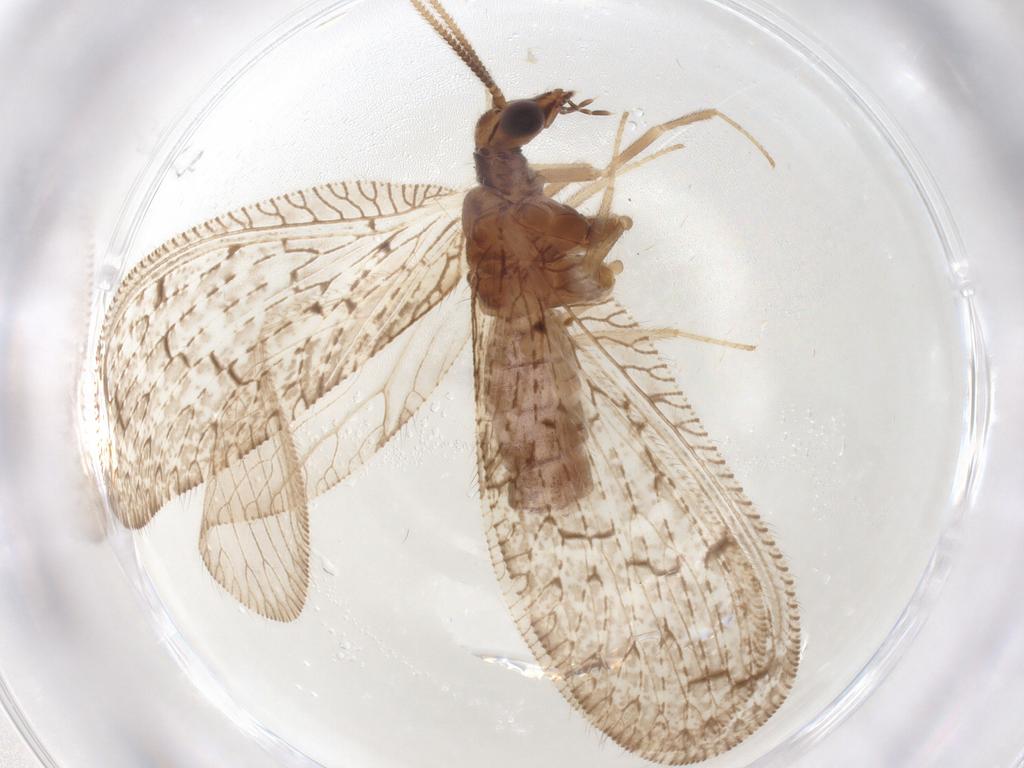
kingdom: Animalia
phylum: Arthropoda
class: Insecta
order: Neuroptera
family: Hemerobiidae
